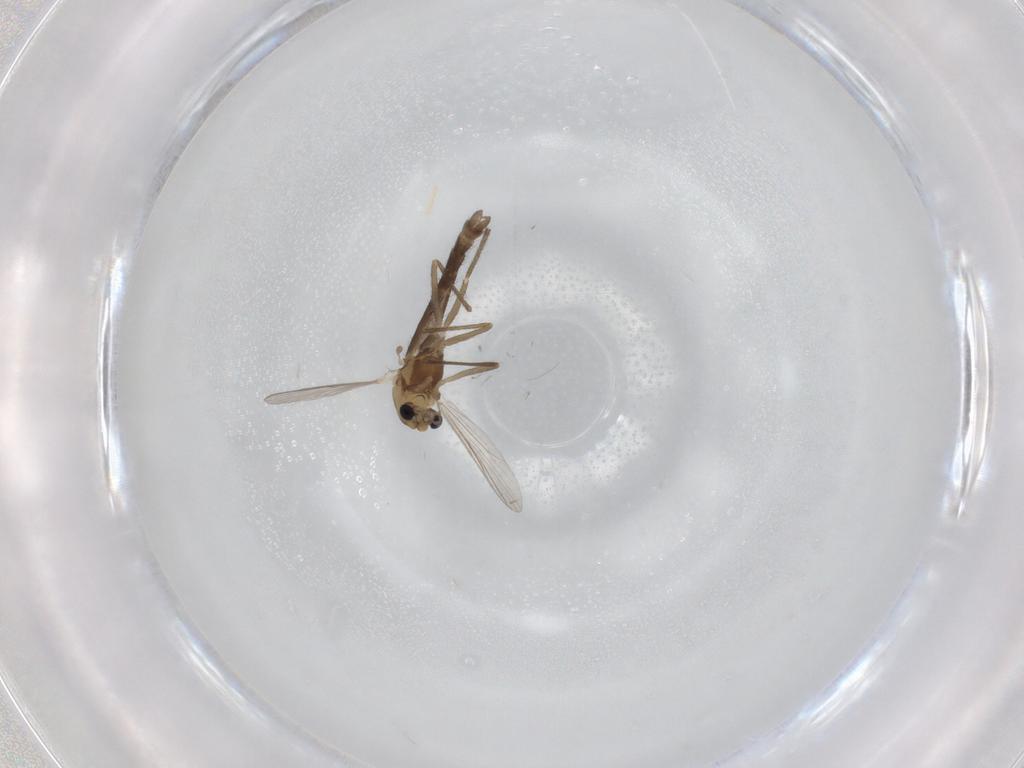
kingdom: Animalia
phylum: Arthropoda
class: Insecta
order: Diptera
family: Chironomidae
